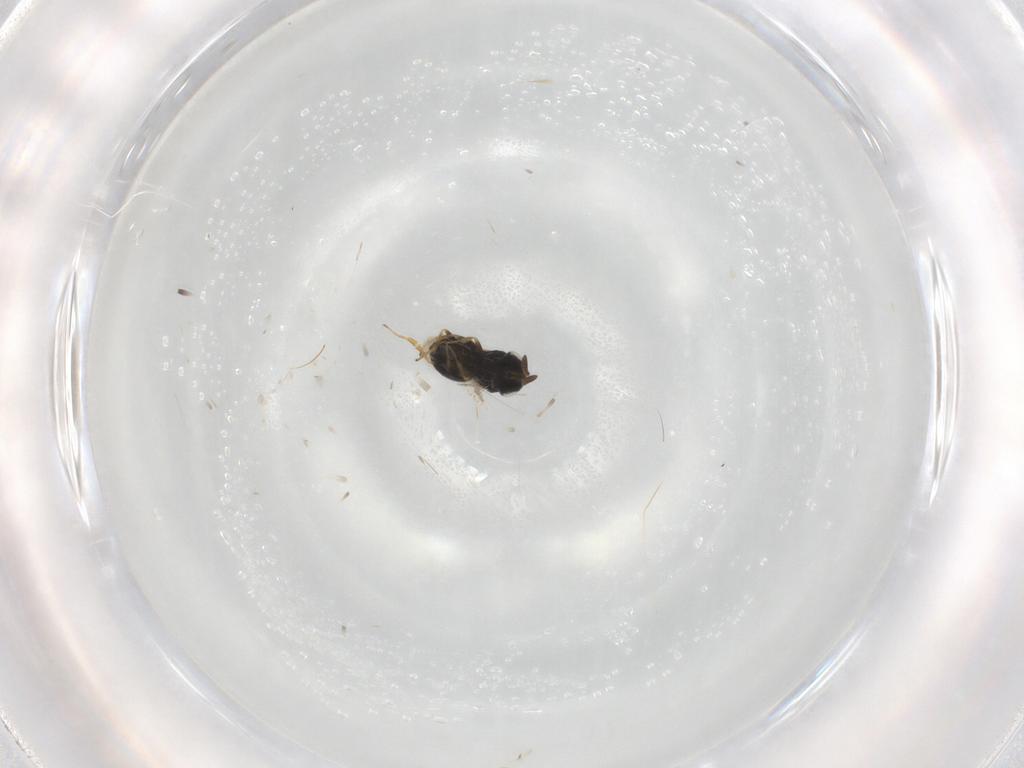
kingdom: Animalia
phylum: Arthropoda
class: Insecta
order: Hymenoptera
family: Scelionidae
